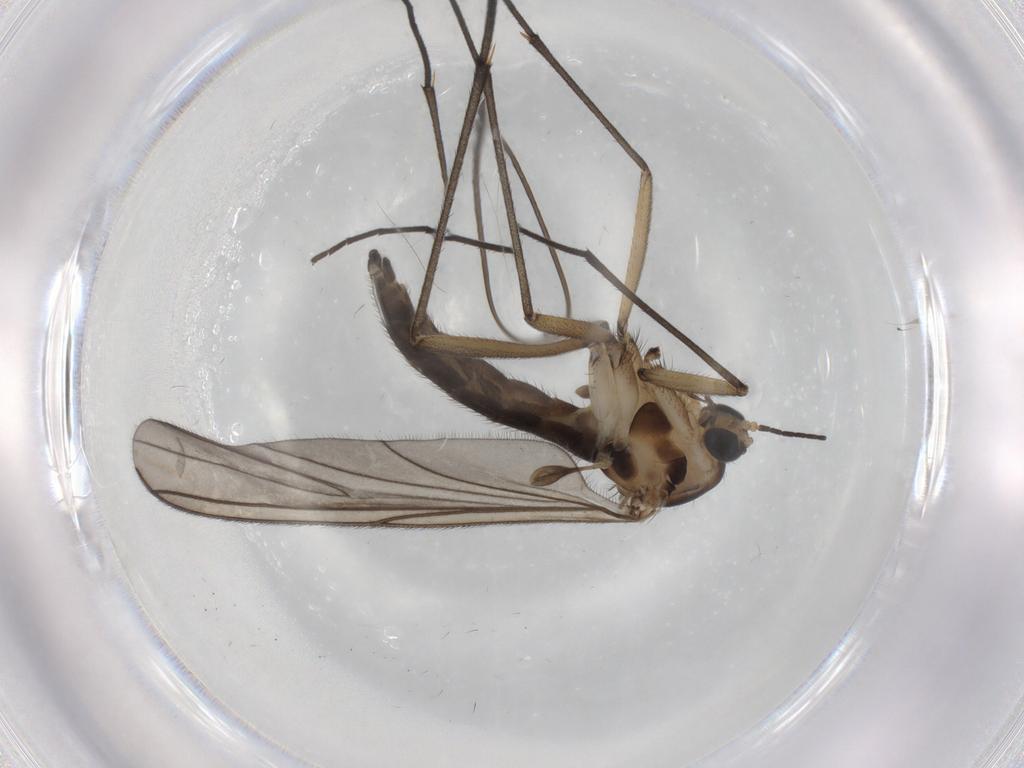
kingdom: Animalia
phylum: Arthropoda
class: Insecta
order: Diptera
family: Sciaridae
